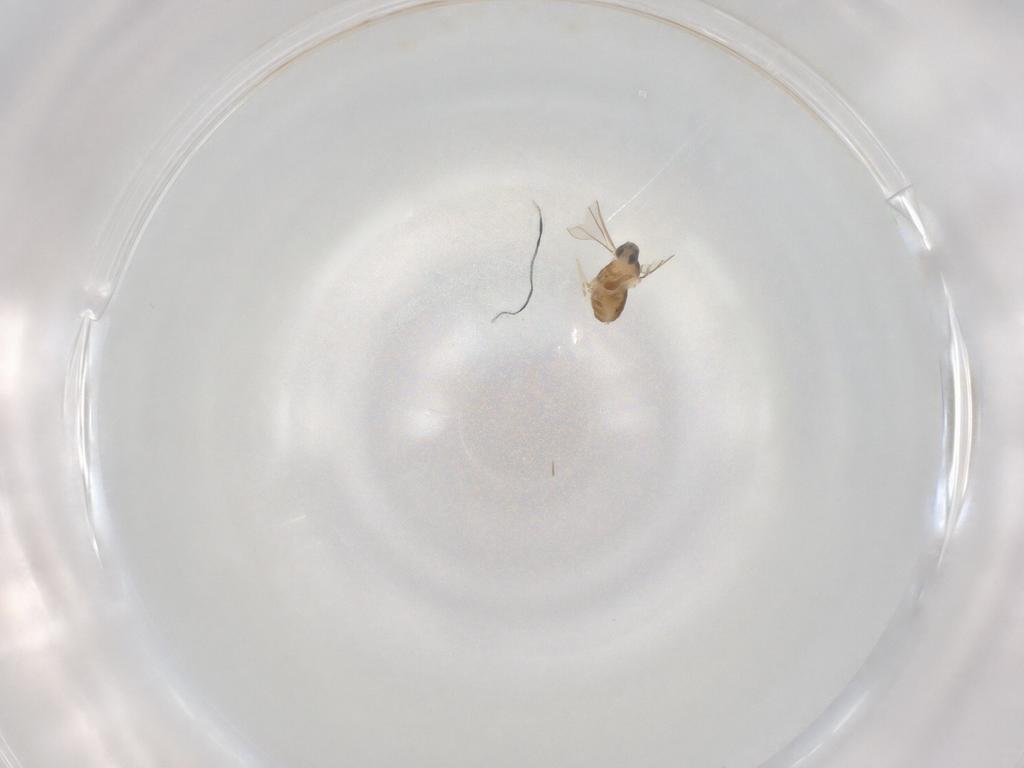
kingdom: Animalia
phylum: Arthropoda
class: Insecta
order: Diptera
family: Cecidomyiidae
